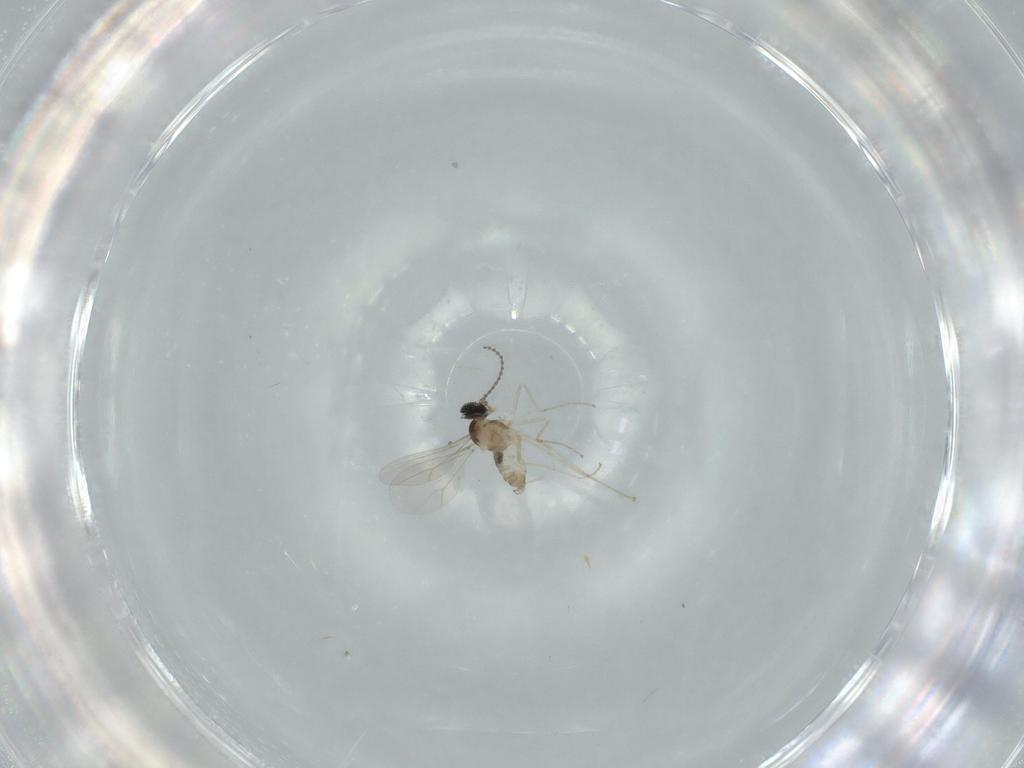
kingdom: Animalia
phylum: Arthropoda
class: Insecta
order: Diptera
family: Cecidomyiidae
